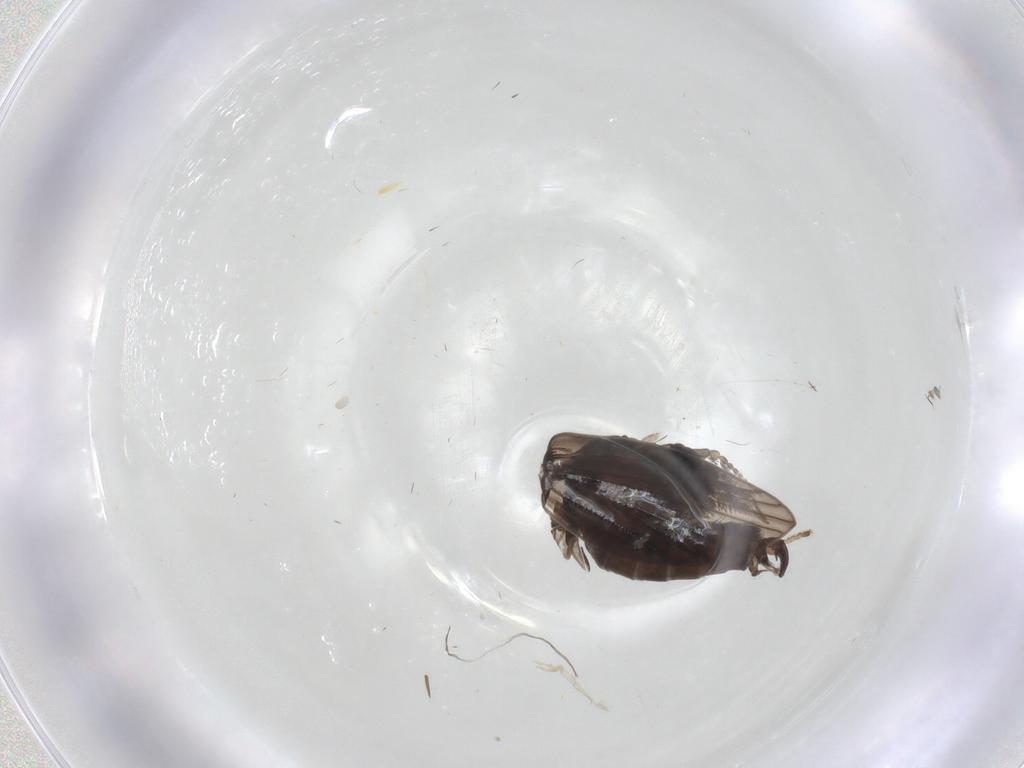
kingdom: Animalia
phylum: Arthropoda
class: Insecta
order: Diptera
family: Psychodidae
